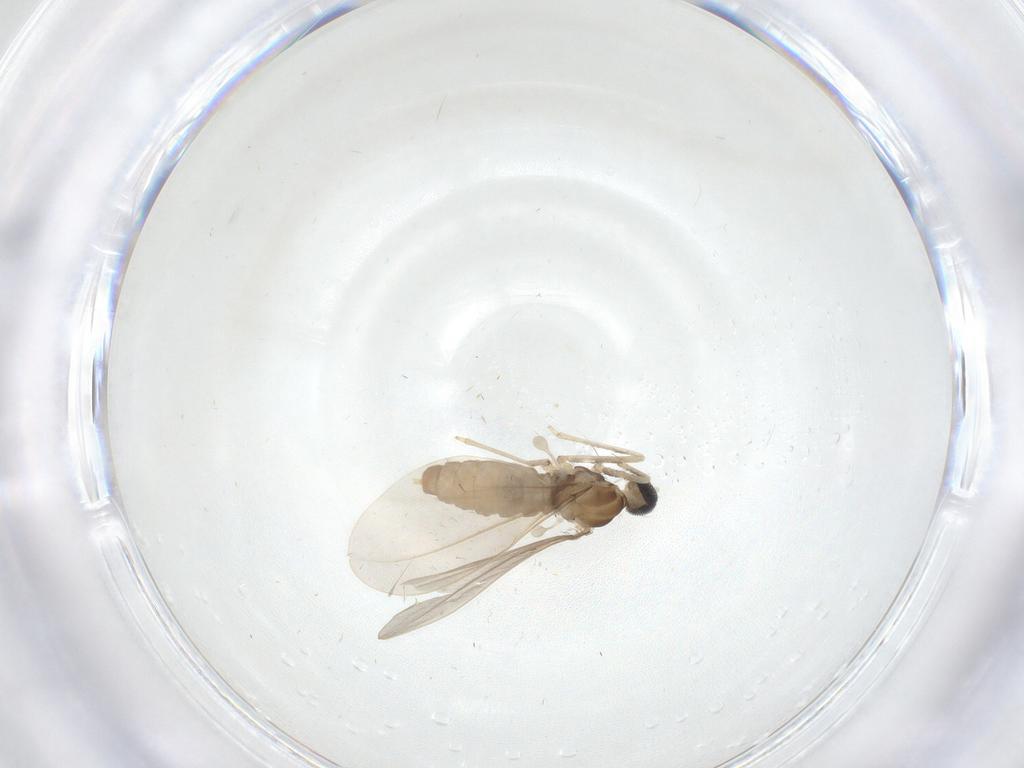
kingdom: Animalia
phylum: Arthropoda
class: Insecta
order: Diptera
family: Cecidomyiidae
